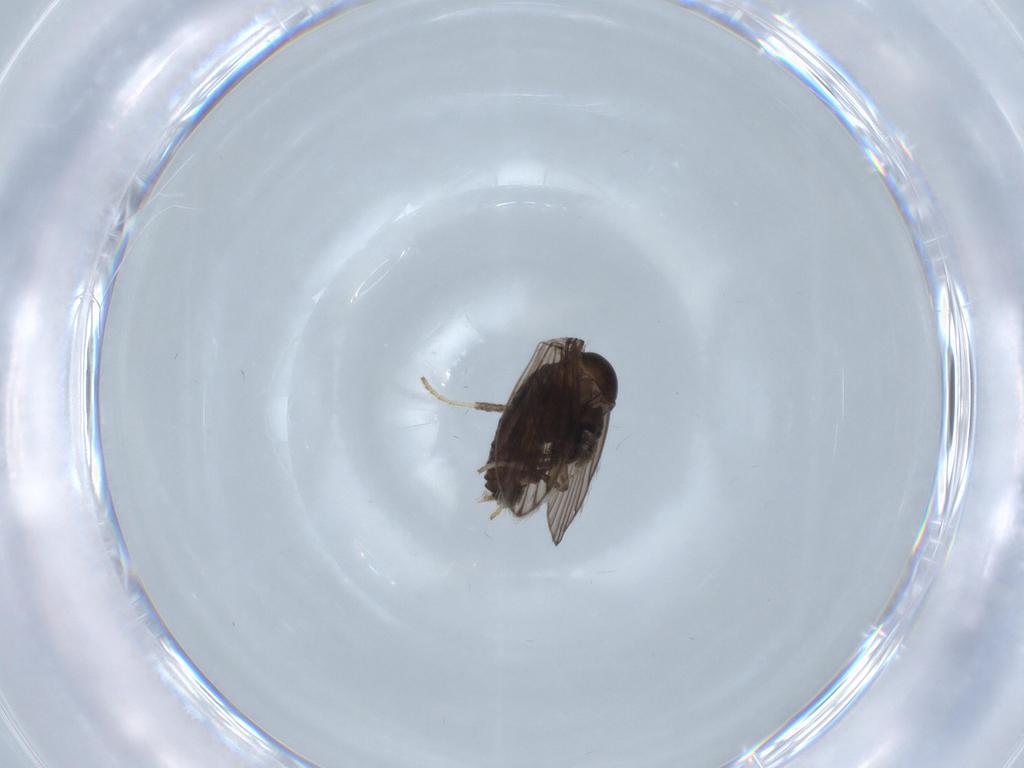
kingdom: Animalia
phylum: Arthropoda
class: Insecta
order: Diptera
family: Psychodidae
